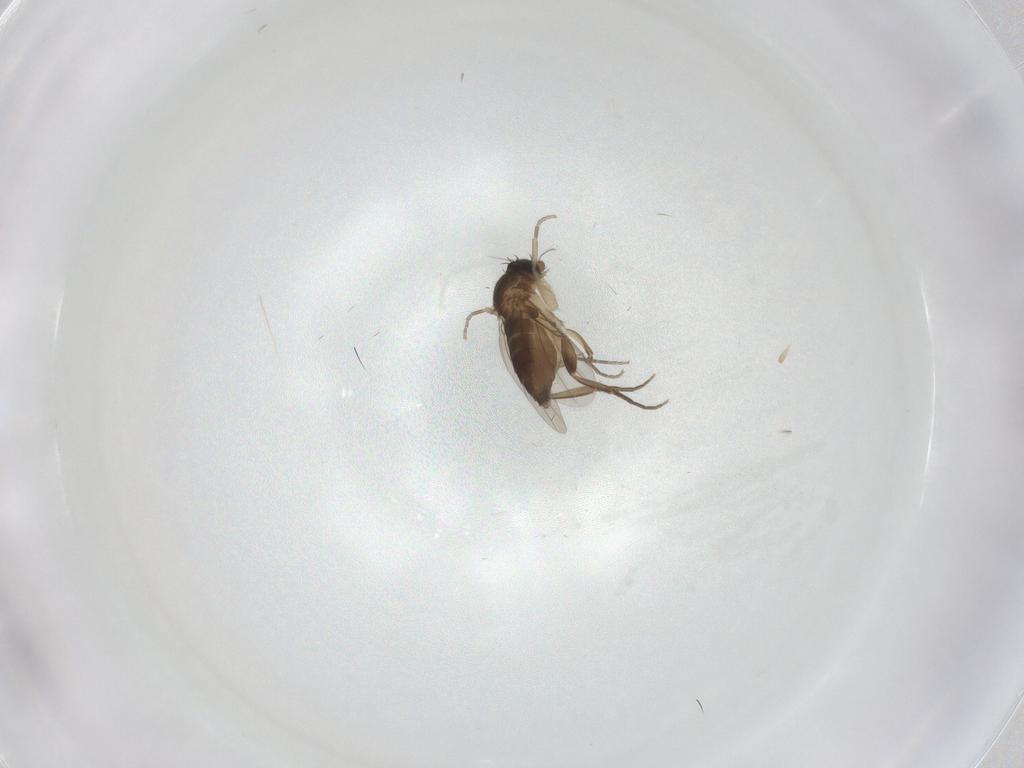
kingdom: Animalia
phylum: Arthropoda
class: Insecta
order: Diptera
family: Phoridae
